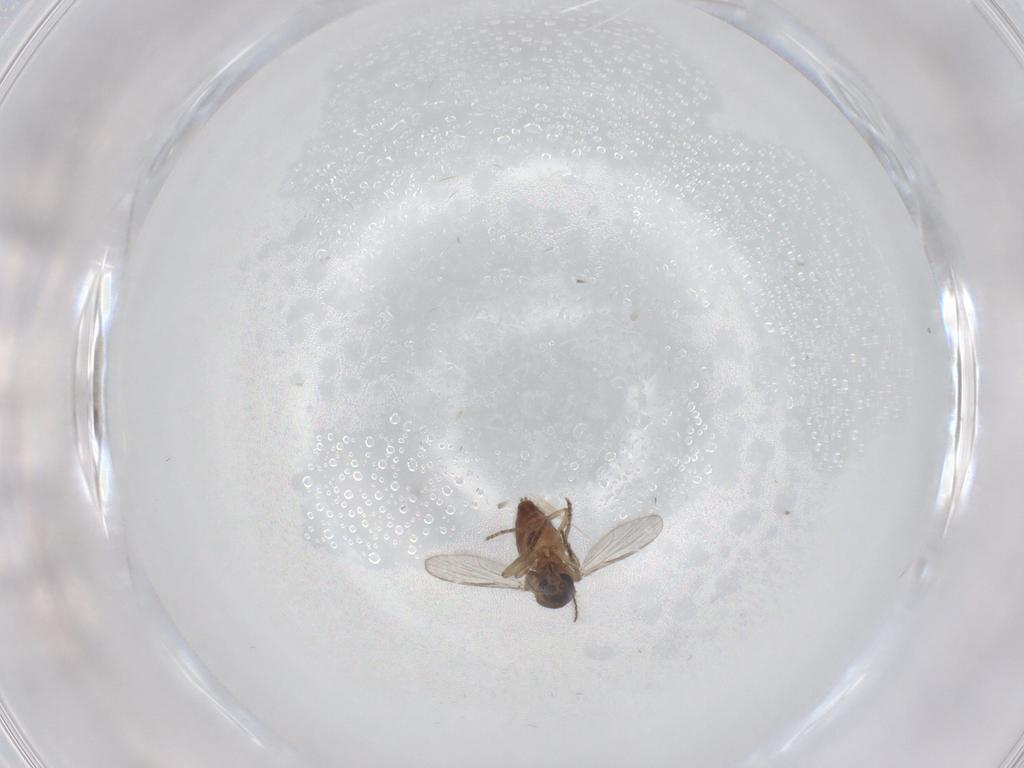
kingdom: Animalia
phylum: Arthropoda
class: Insecta
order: Diptera
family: Ceratopogonidae
